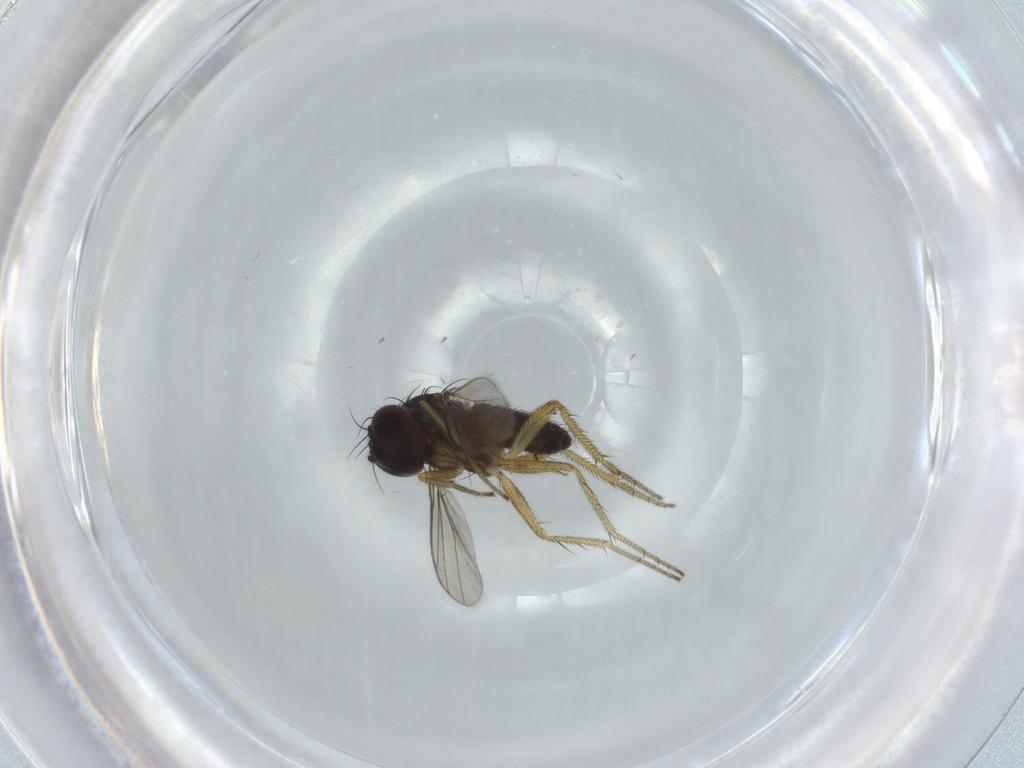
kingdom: Animalia
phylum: Arthropoda
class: Insecta
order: Diptera
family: Dolichopodidae
